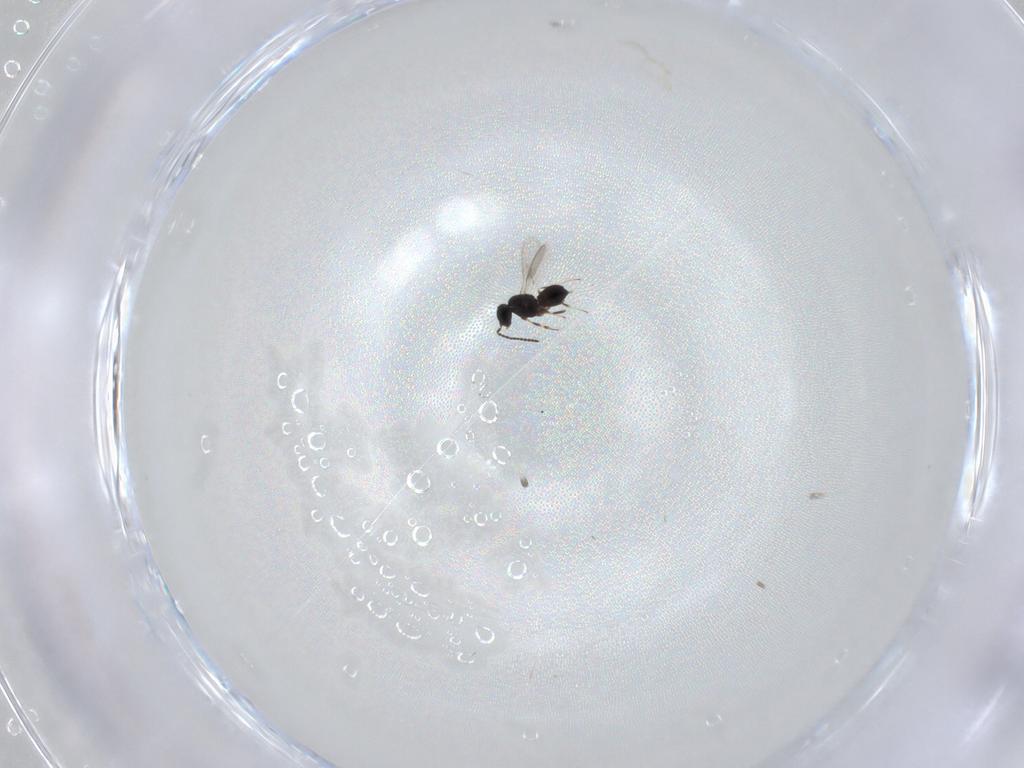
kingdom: Animalia
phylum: Arthropoda
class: Insecta
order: Hymenoptera
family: Scelionidae
